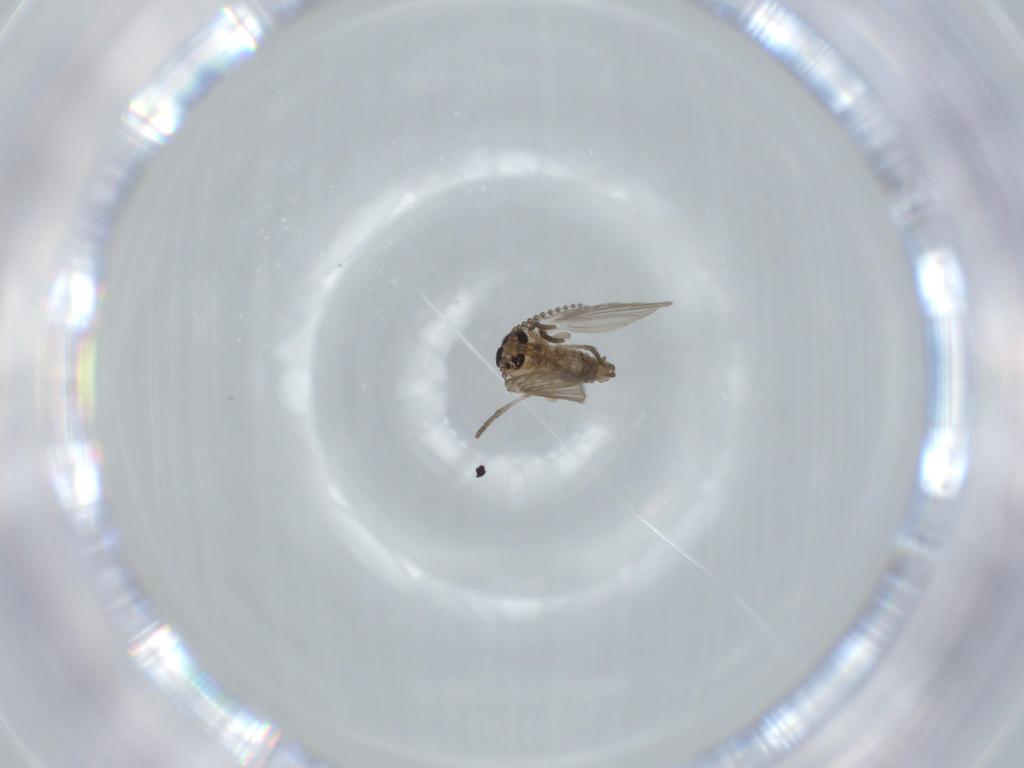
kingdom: Animalia
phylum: Arthropoda
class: Insecta
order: Diptera
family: Psychodidae
